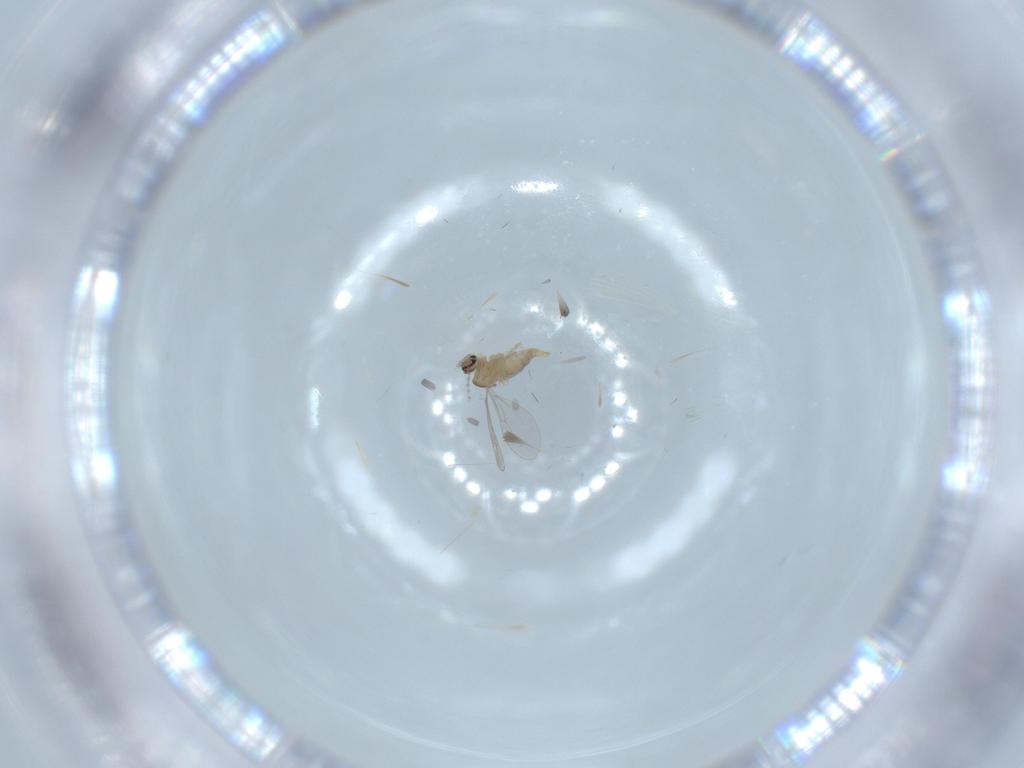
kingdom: Animalia
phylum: Arthropoda
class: Insecta
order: Diptera
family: Cecidomyiidae
